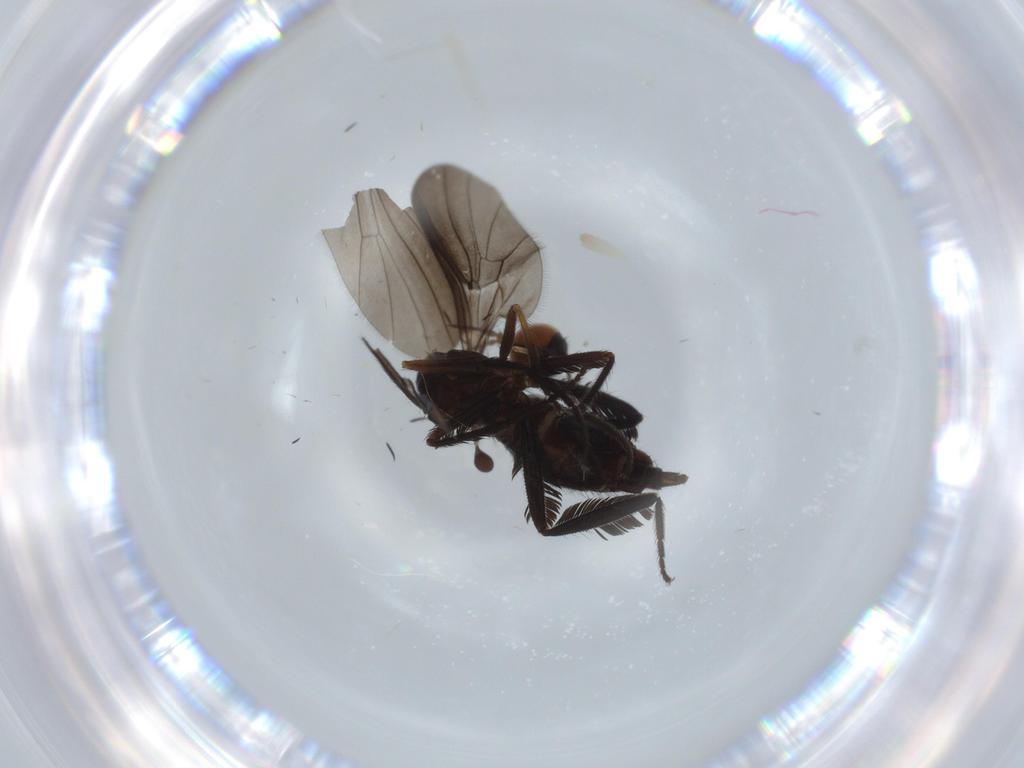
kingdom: Animalia
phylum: Arthropoda
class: Insecta
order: Diptera
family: Empididae
